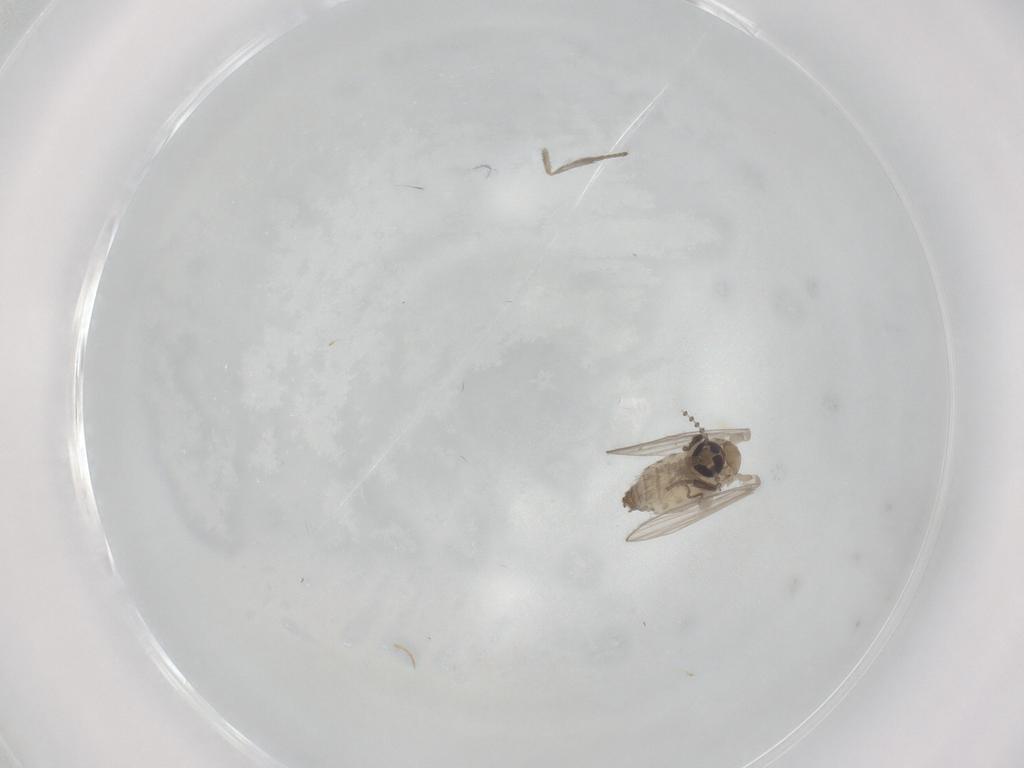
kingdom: Animalia
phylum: Arthropoda
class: Insecta
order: Diptera
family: Psychodidae
